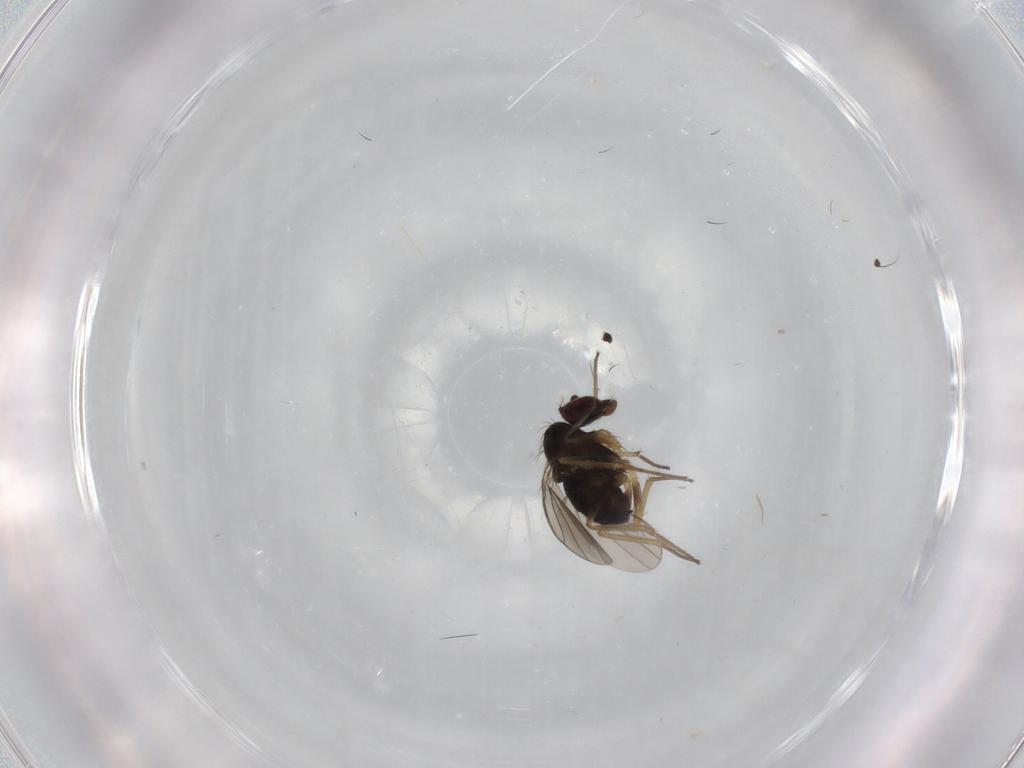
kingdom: Animalia
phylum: Arthropoda
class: Insecta
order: Diptera
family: Dolichopodidae
